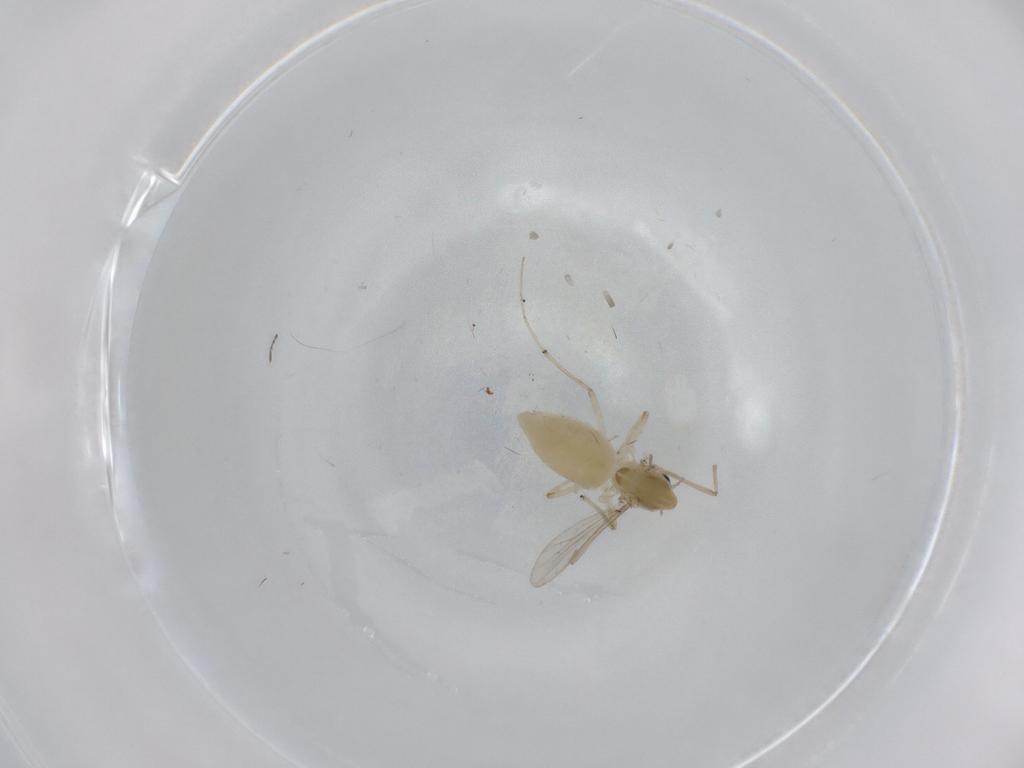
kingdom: Animalia
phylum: Arthropoda
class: Insecta
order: Diptera
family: Chironomidae
